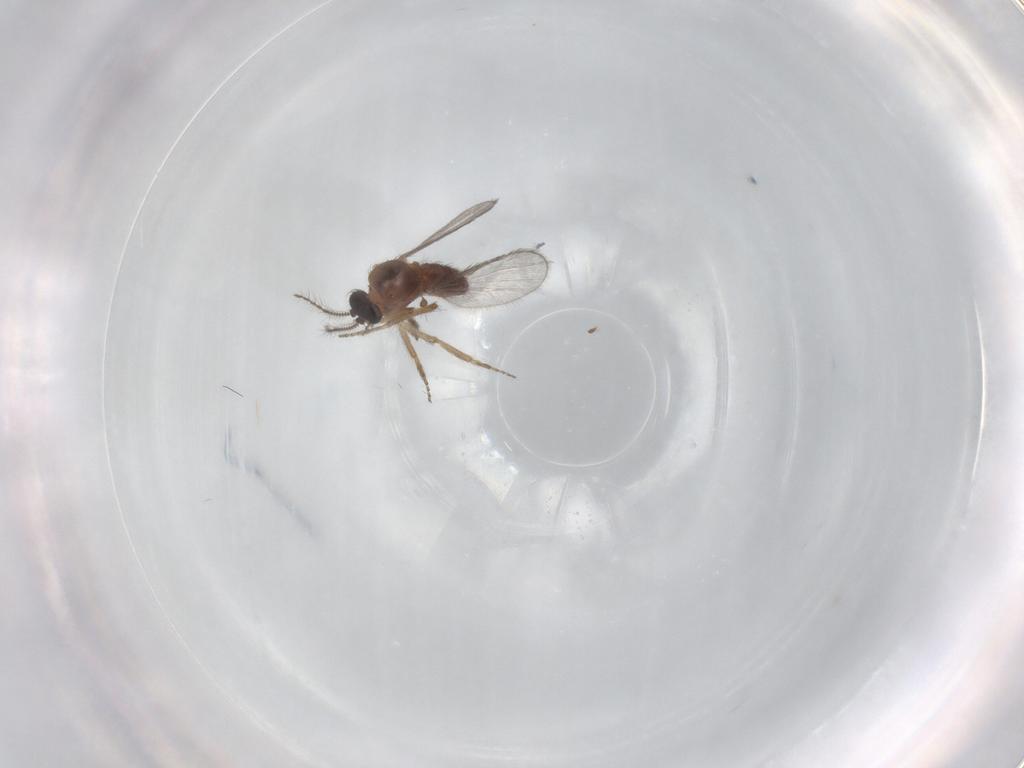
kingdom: Animalia
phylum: Arthropoda
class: Insecta
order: Diptera
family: Ceratopogonidae
